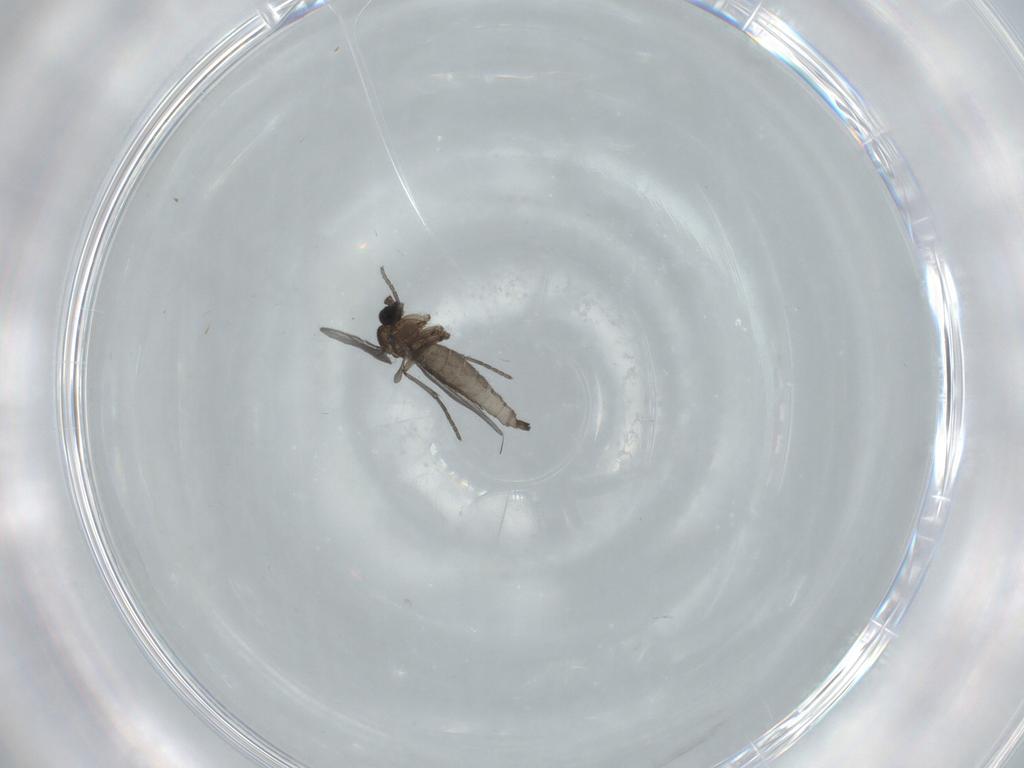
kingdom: Animalia
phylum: Arthropoda
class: Insecta
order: Diptera
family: Sciaridae
